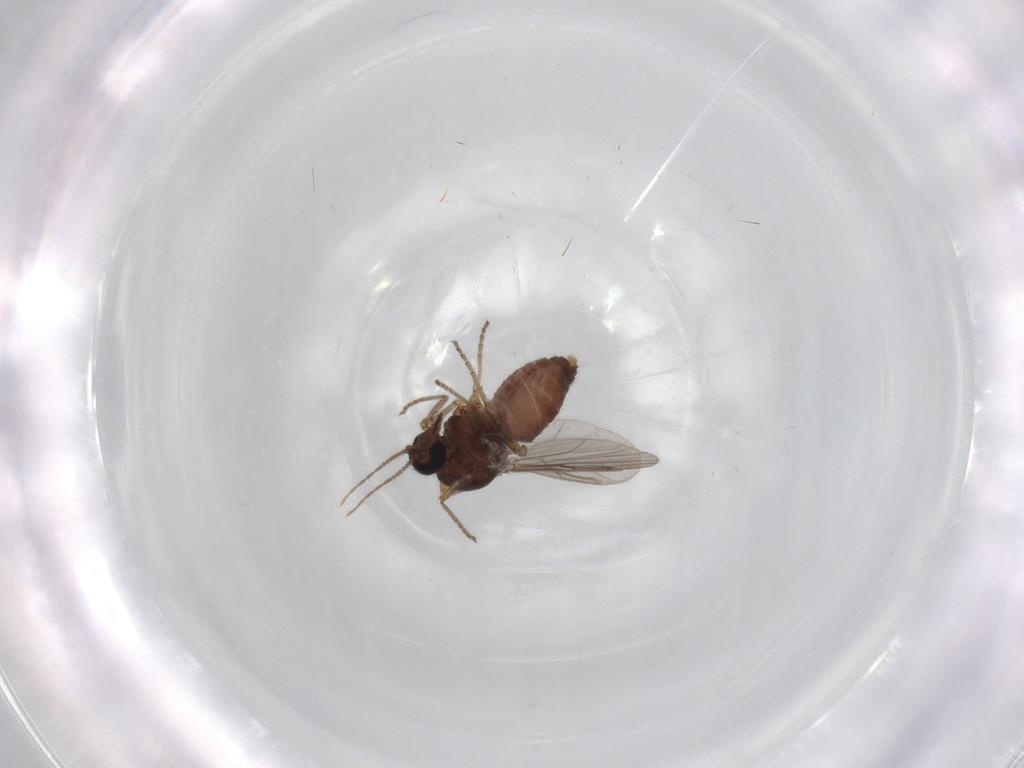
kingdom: Animalia
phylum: Arthropoda
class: Insecta
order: Diptera
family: Ceratopogonidae
